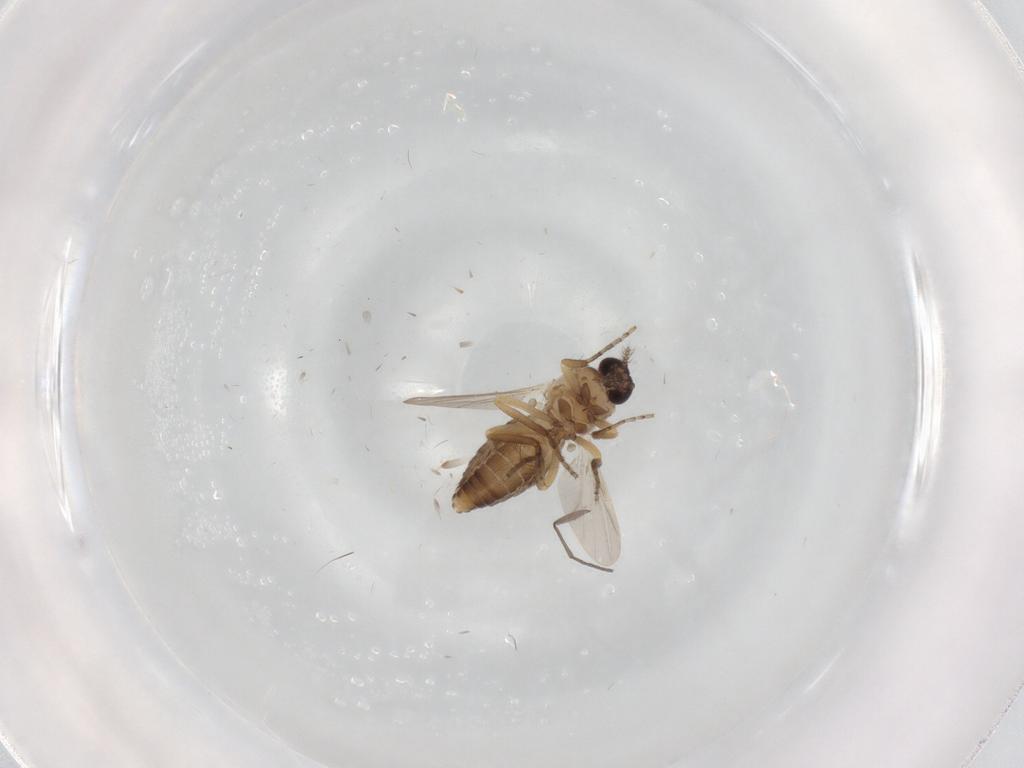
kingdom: Animalia
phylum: Arthropoda
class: Insecta
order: Diptera
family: Ceratopogonidae
